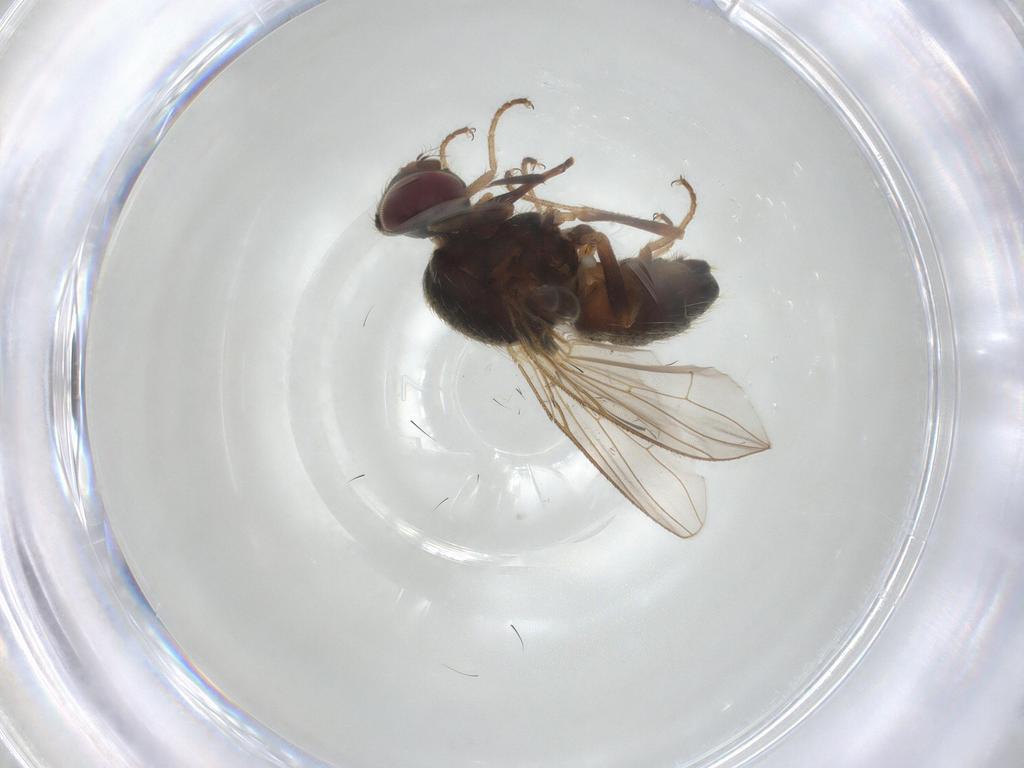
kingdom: Animalia
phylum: Arthropoda
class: Insecta
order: Diptera
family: Muscidae
